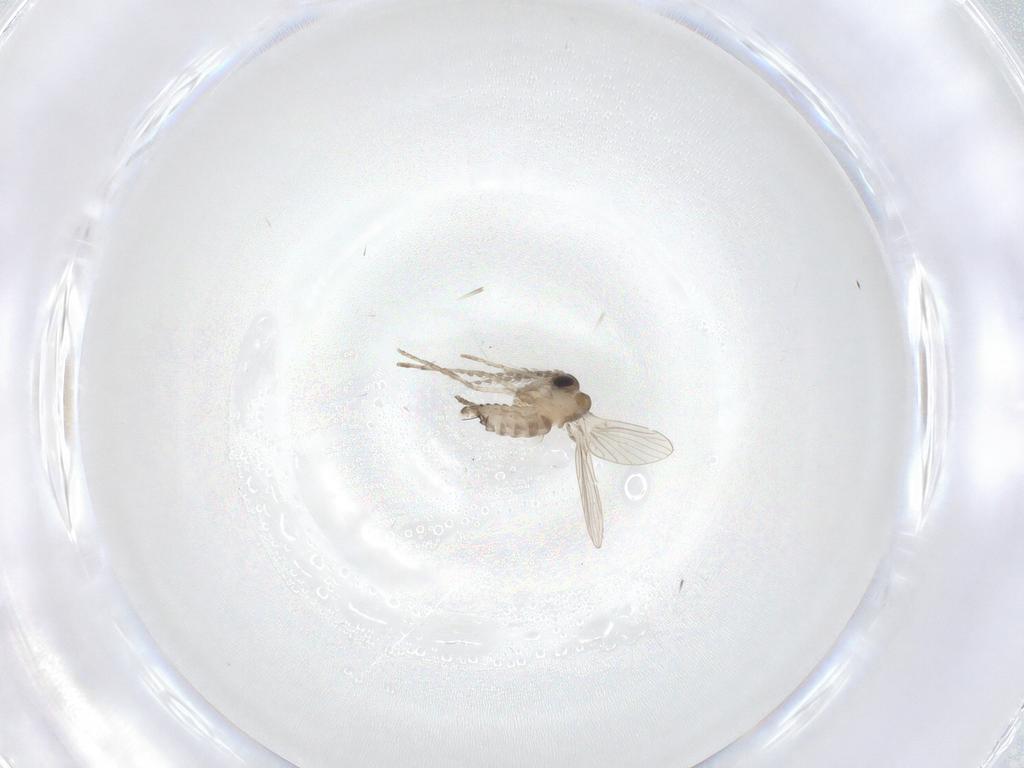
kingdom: Animalia
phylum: Arthropoda
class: Insecta
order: Diptera
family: Psychodidae
